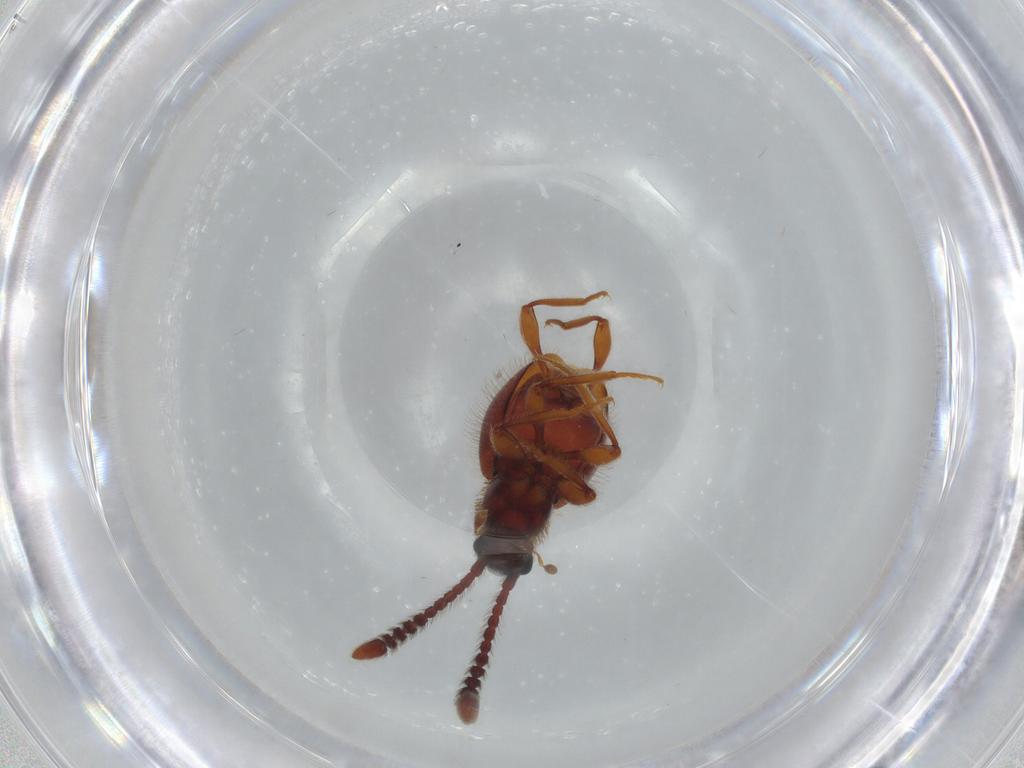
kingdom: Animalia
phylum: Arthropoda
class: Insecta
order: Coleoptera
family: Staphylinidae
